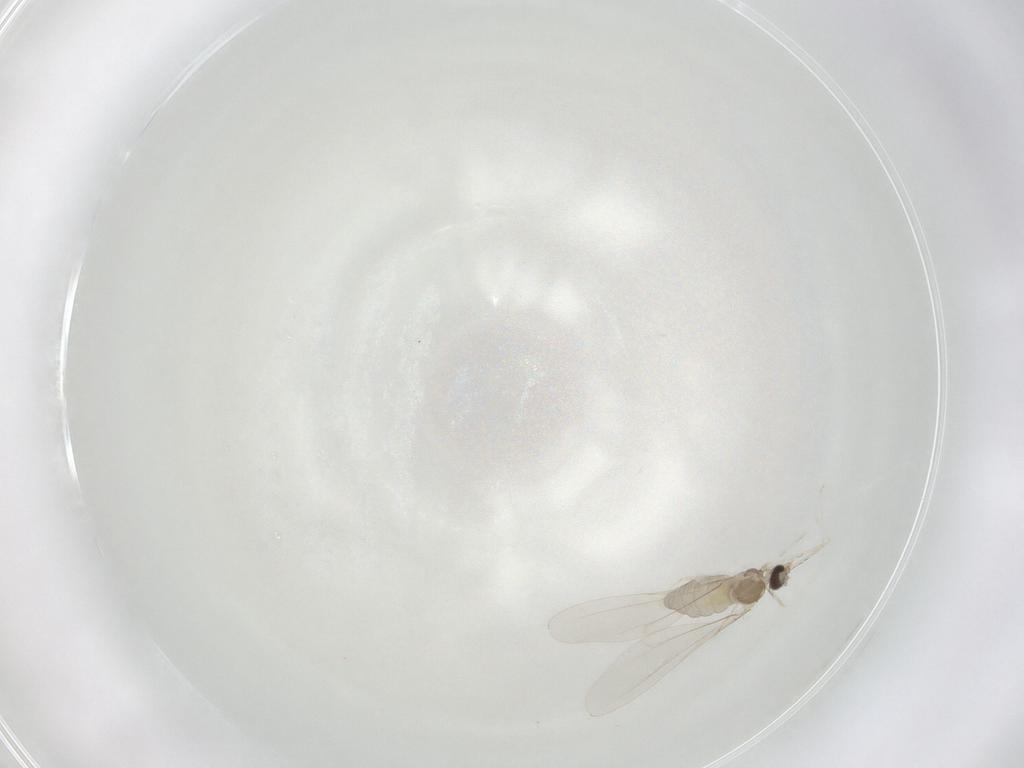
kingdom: Animalia
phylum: Arthropoda
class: Insecta
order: Diptera
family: Cecidomyiidae
